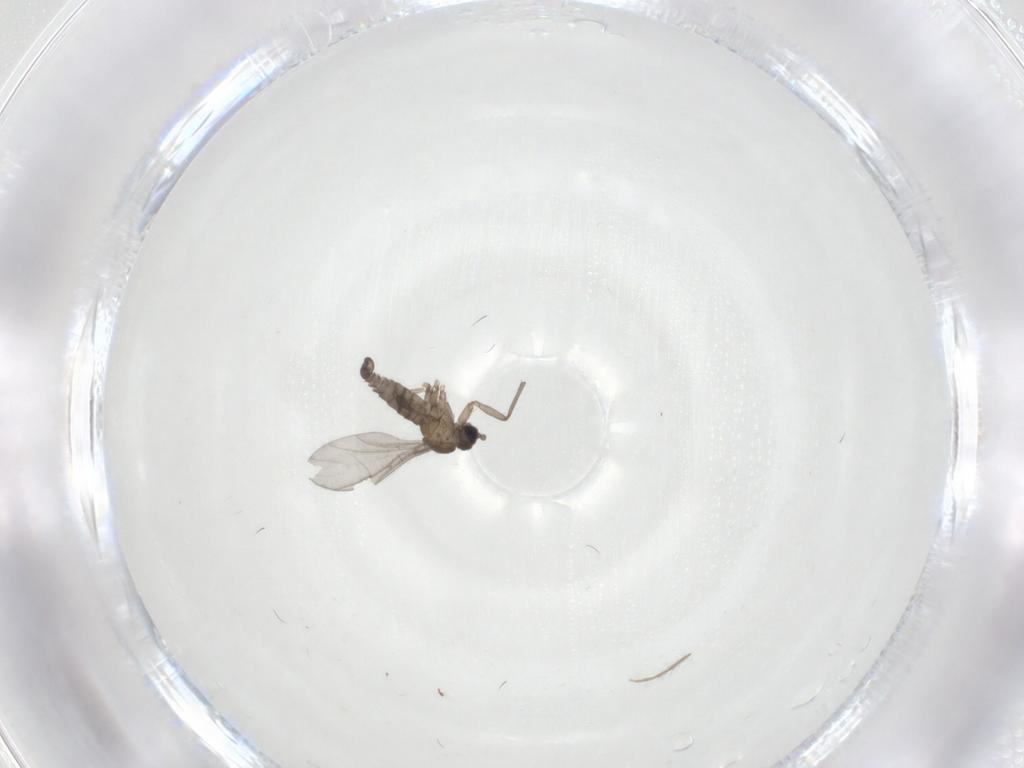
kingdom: Animalia
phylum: Arthropoda
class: Insecta
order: Diptera
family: Sciaridae
